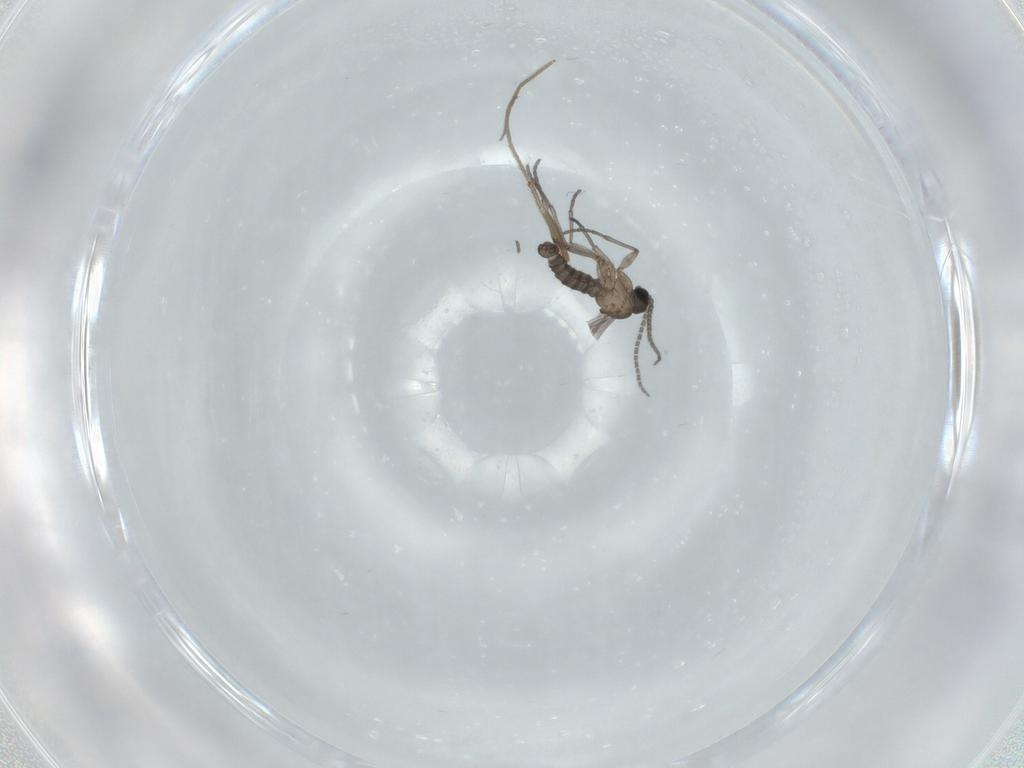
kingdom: Animalia
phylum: Arthropoda
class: Insecta
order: Diptera
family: Sciaridae
